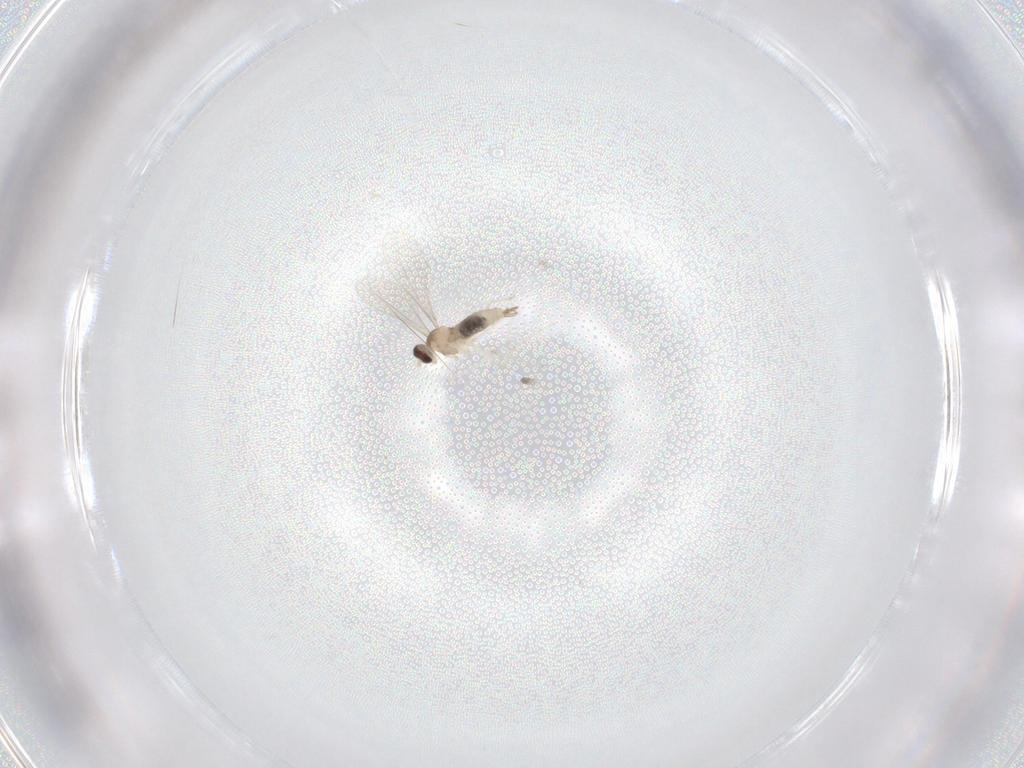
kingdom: Animalia
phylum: Arthropoda
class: Insecta
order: Diptera
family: Cecidomyiidae
